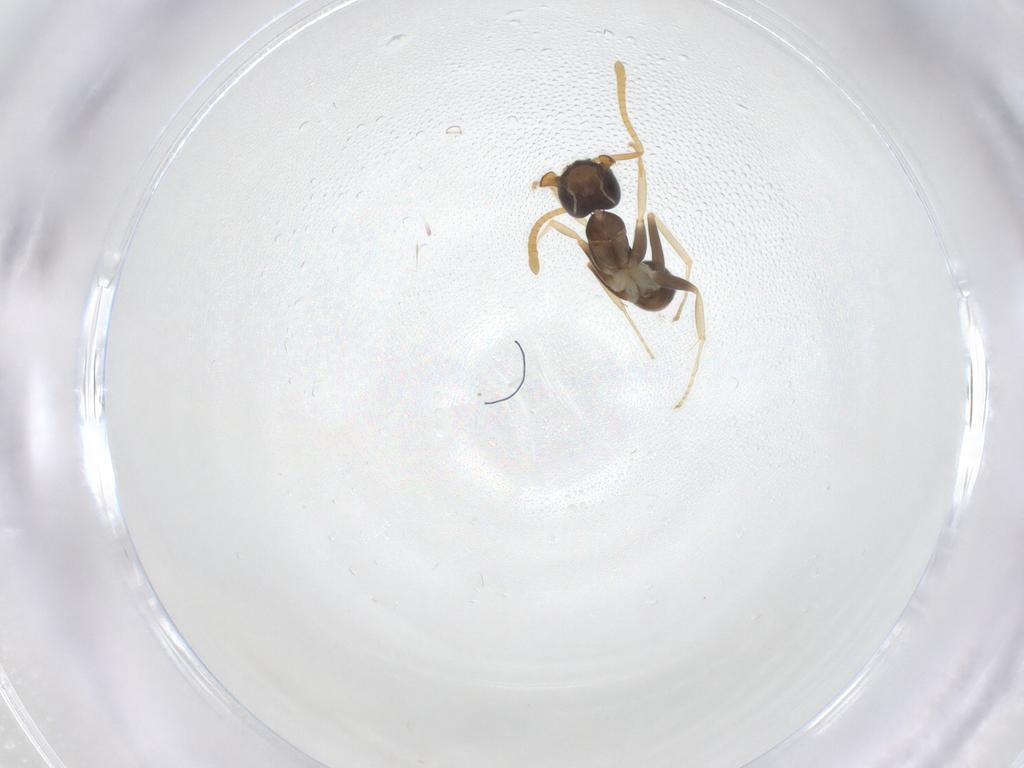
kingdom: Animalia
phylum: Arthropoda
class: Insecta
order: Hymenoptera
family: Formicidae
